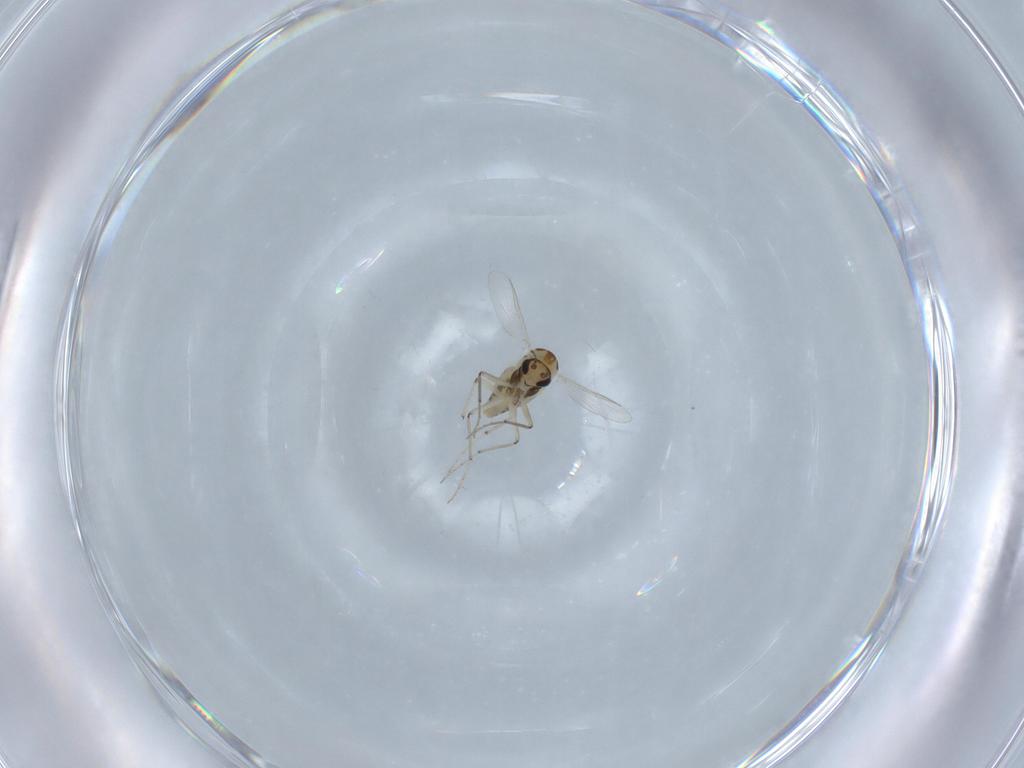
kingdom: Animalia
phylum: Arthropoda
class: Insecta
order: Diptera
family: Chironomidae
